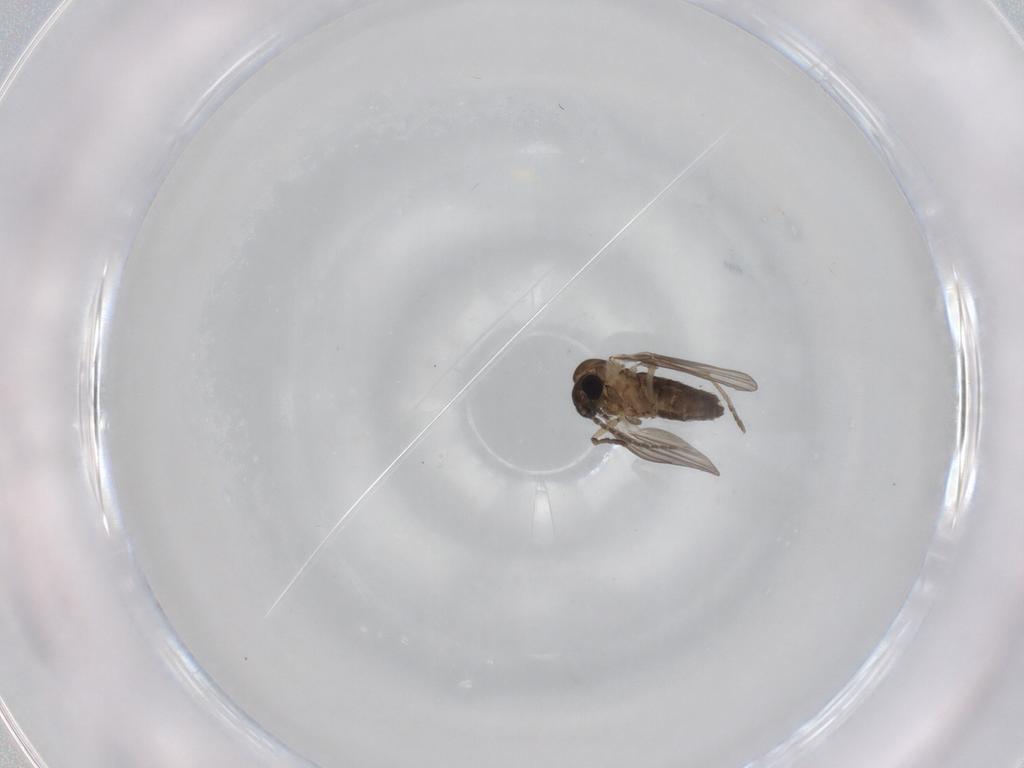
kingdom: Animalia
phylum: Arthropoda
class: Insecta
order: Diptera
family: Psychodidae
